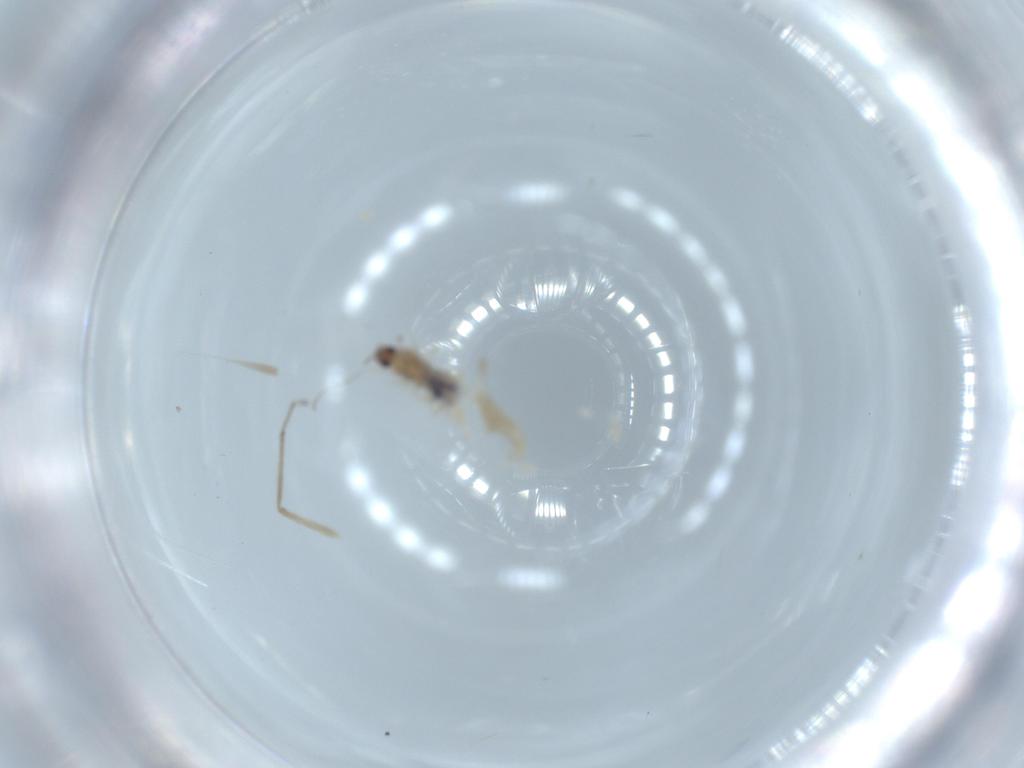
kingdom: Animalia
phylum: Arthropoda
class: Insecta
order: Diptera
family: Cecidomyiidae
